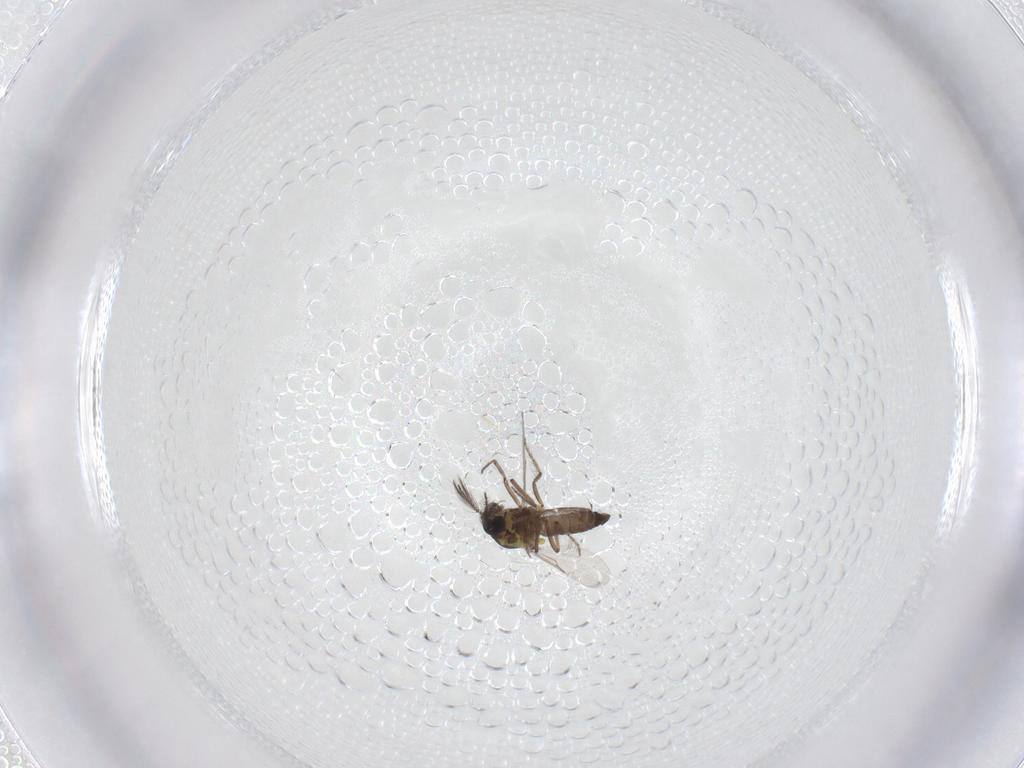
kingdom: Animalia
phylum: Arthropoda
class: Insecta
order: Diptera
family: Ceratopogonidae
